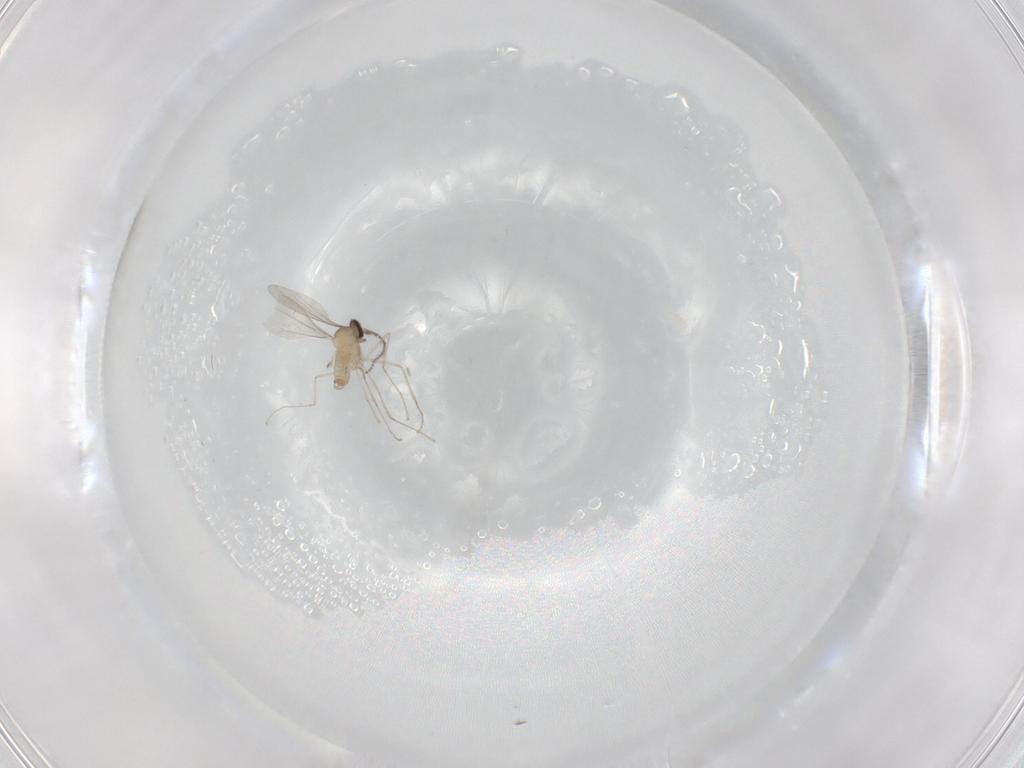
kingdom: Animalia
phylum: Arthropoda
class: Insecta
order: Diptera
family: Cecidomyiidae
